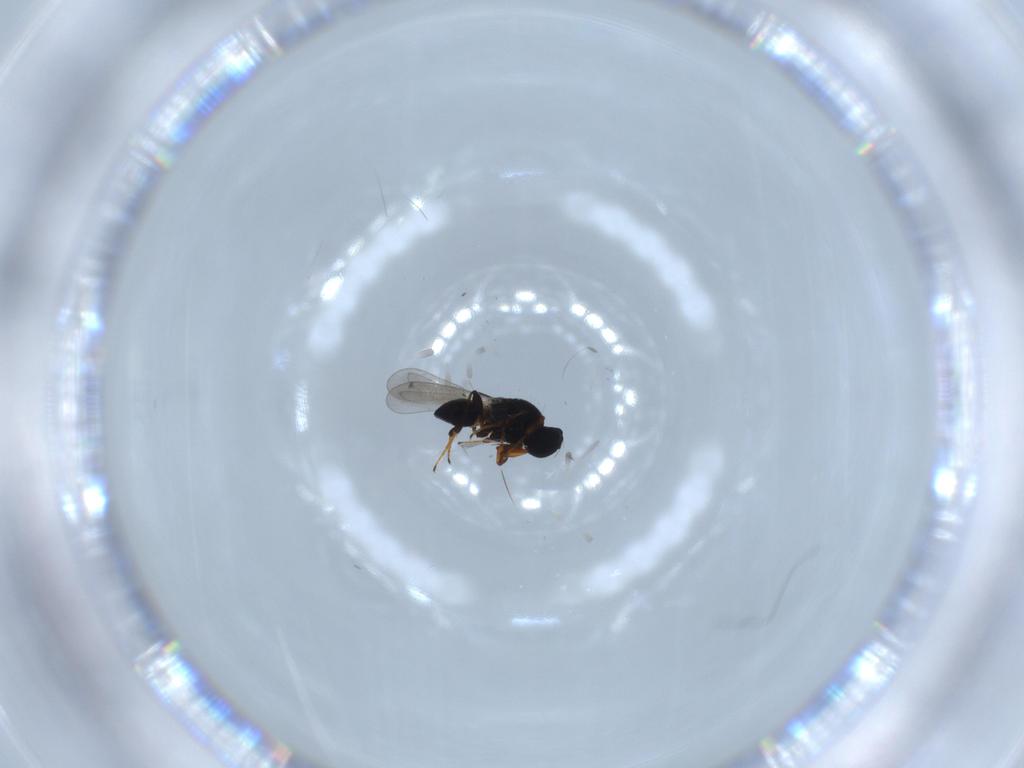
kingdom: Animalia
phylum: Arthropoda
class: Insecta
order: Hymenoptera
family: Platygastridae
